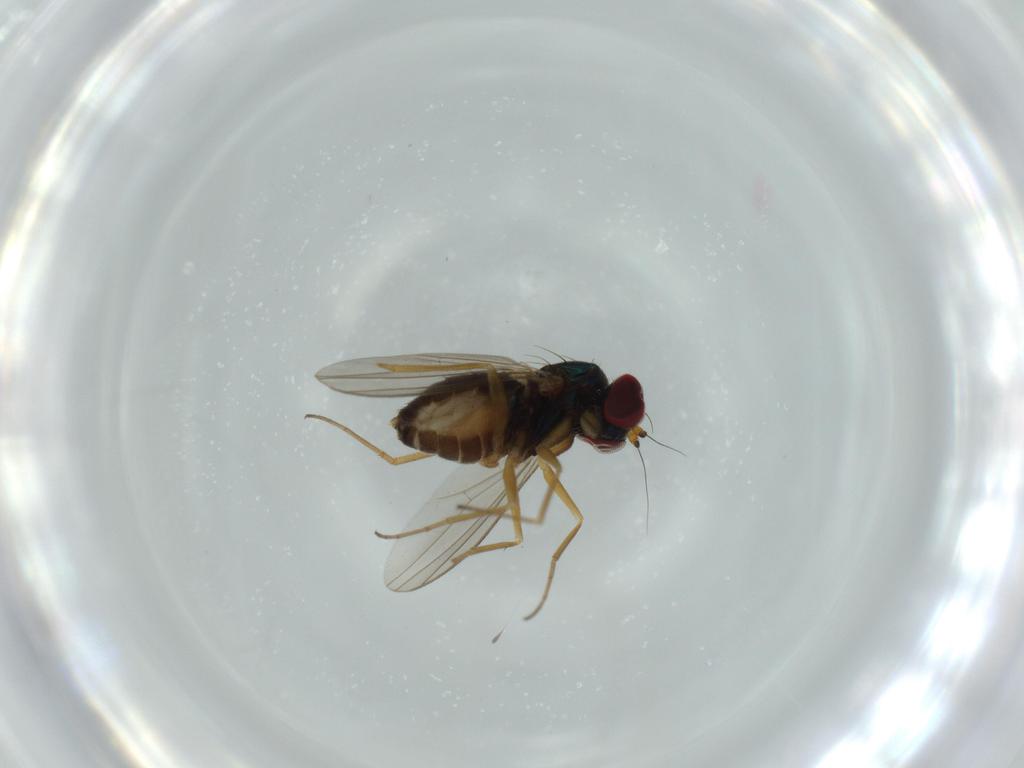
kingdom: Animalia
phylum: Arthropoda
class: Insecta
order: Diptera
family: Dolichopodidae
